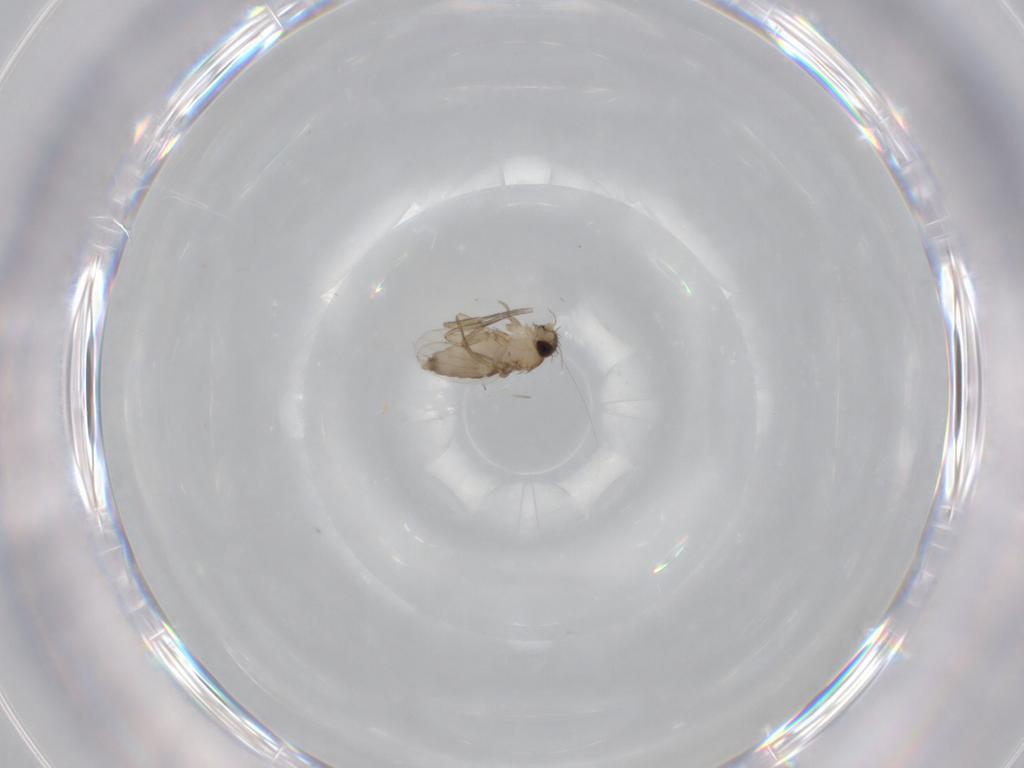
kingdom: Animalia
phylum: Arthropoda
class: Insecta
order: Diptera
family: Phoridae
